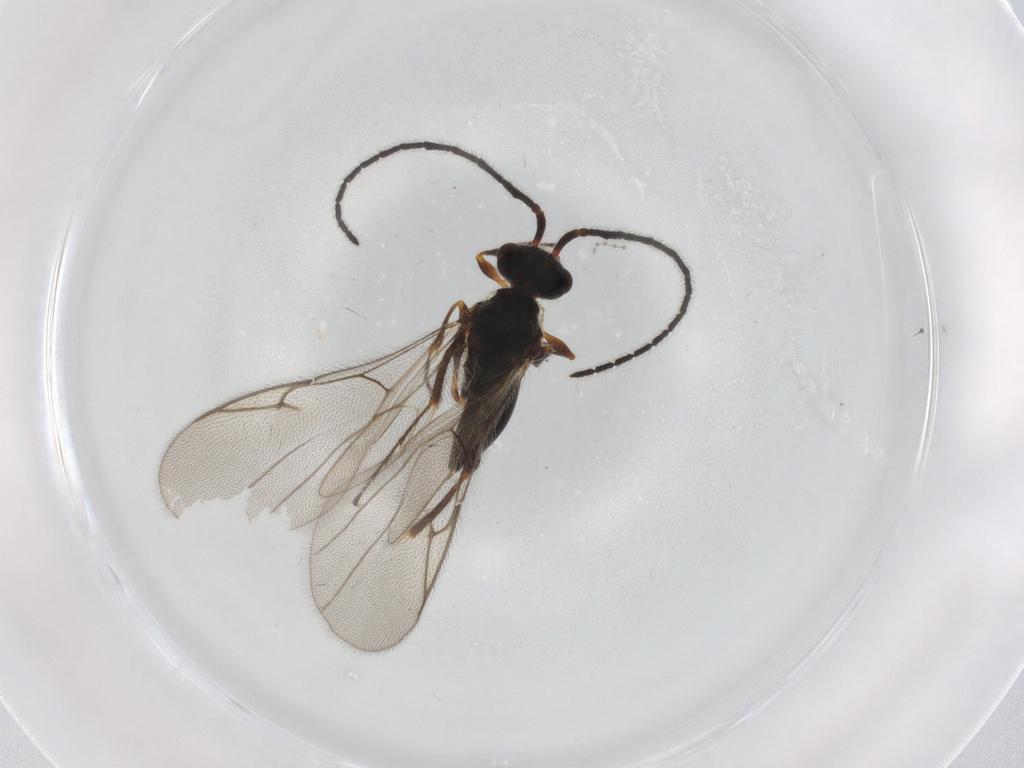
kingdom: Animalia
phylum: Arthropoda
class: Insecta
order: Hymenoptera
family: Diapriidae
